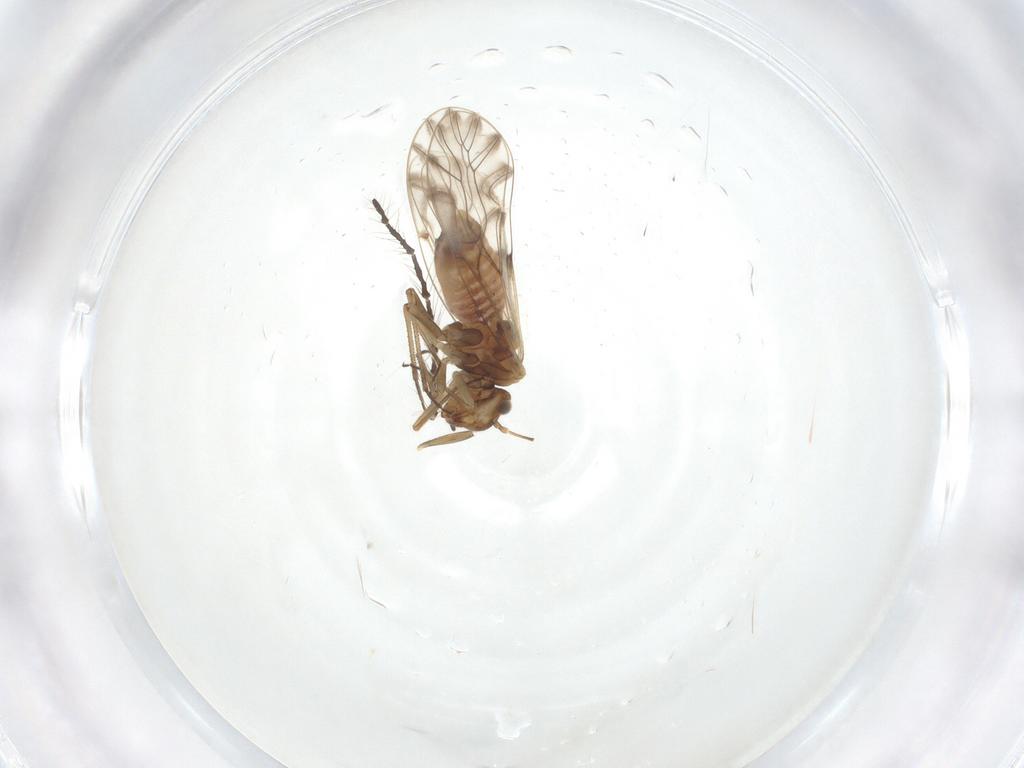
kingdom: Animalia
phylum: Arthropoda
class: Insecta
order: Psocodea
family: Lachesillidae
